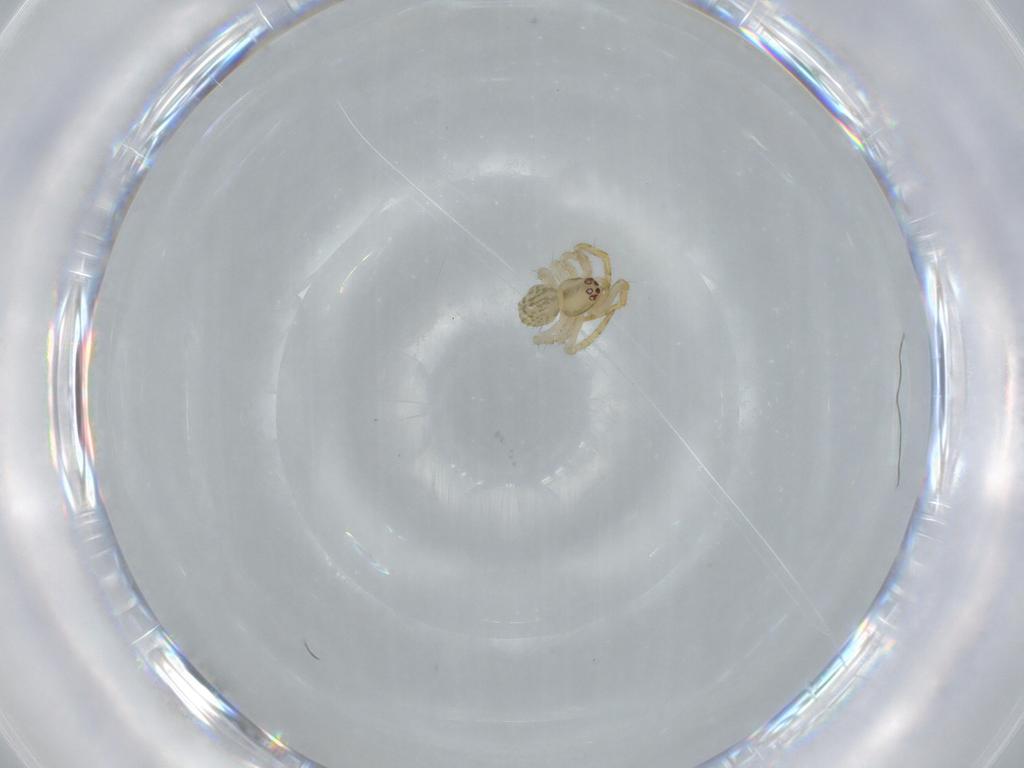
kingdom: Animalia
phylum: Arthropoda
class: Arachnida
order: Araneae
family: Theridiidae
